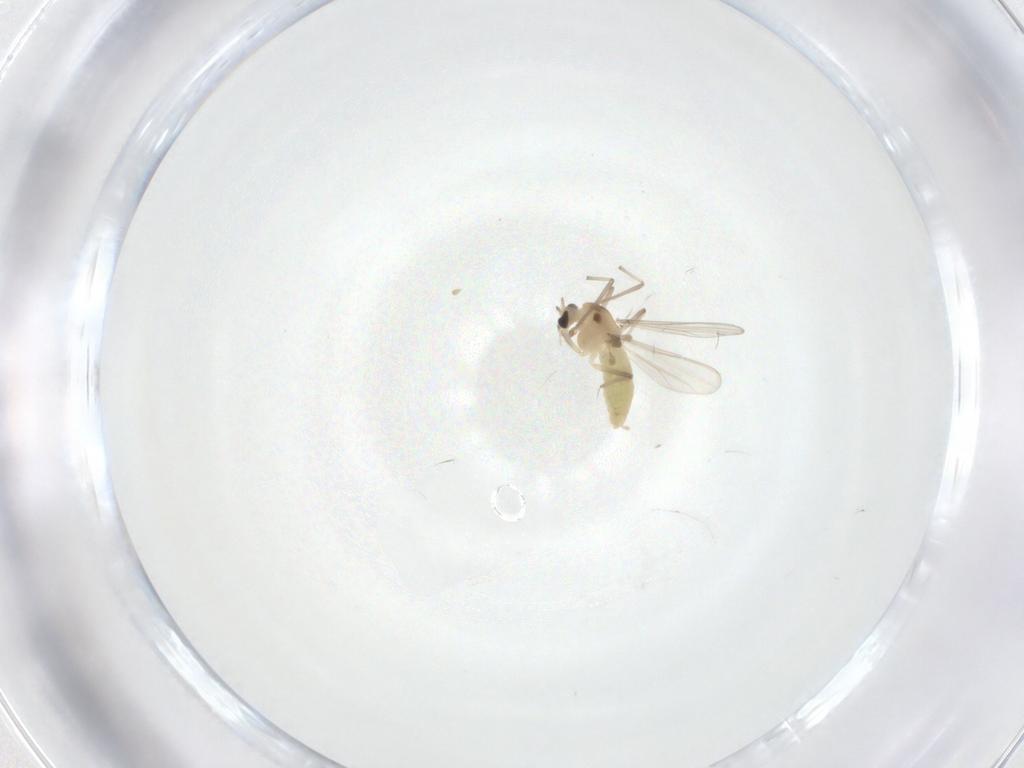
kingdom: Animalia
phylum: Arthropoda
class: Insecta
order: Diptera
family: Chironomidae
